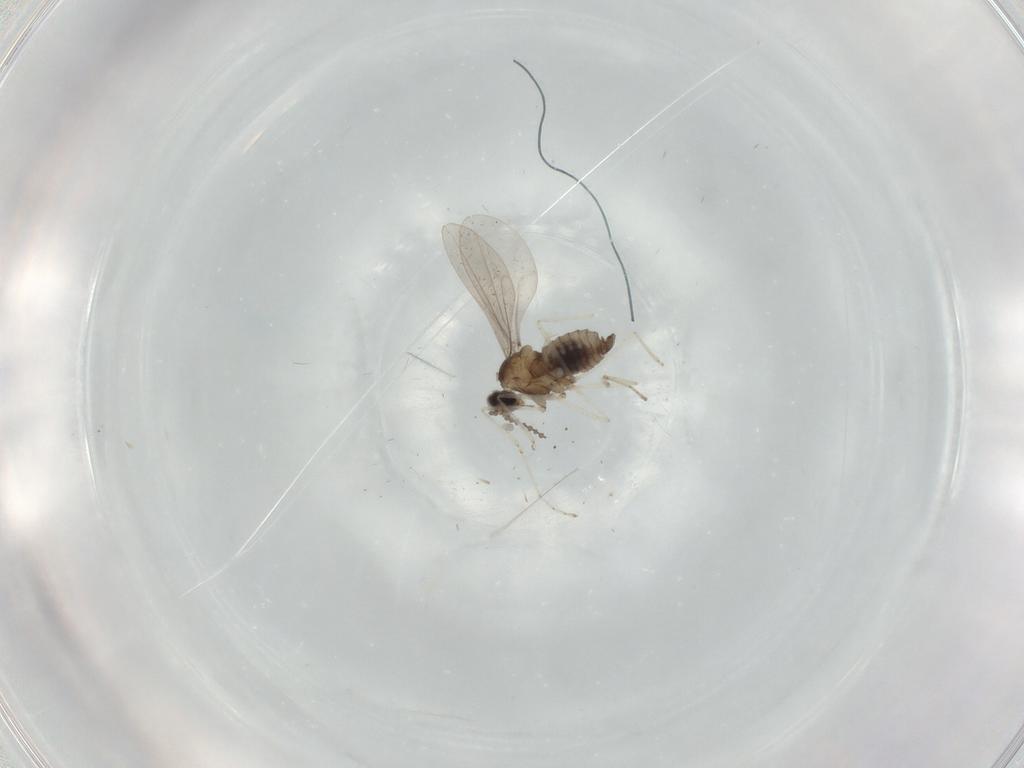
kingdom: Animalia
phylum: Arthropoda
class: Insecta
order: Diptera
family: Sciaridae
